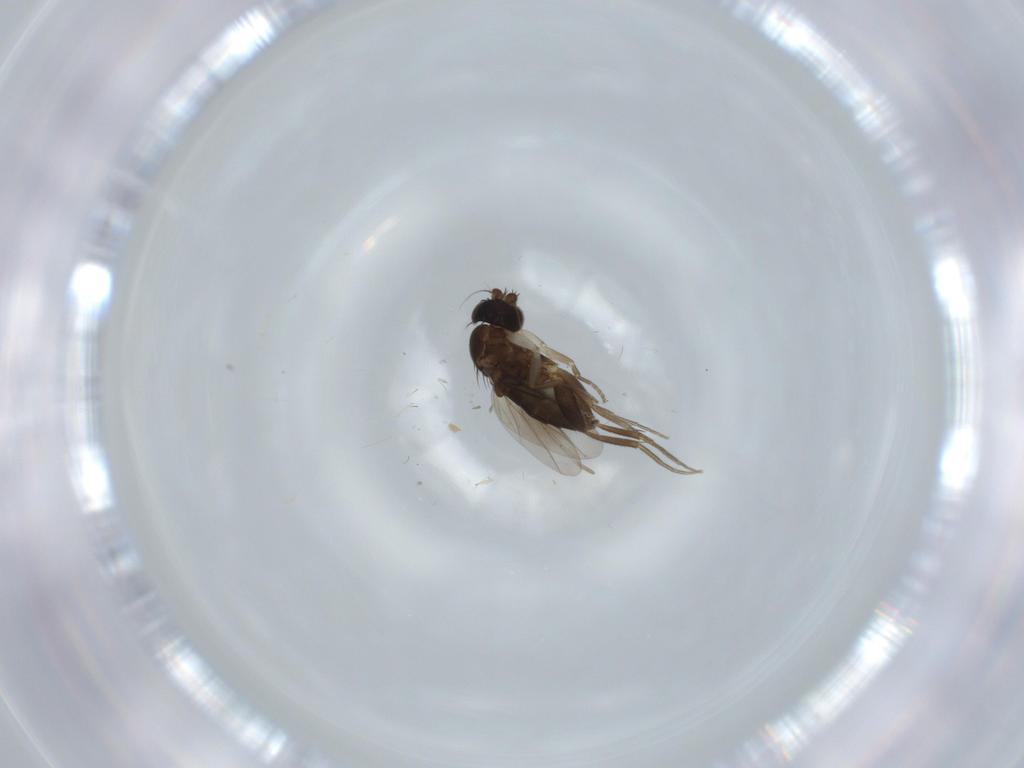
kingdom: Animalia
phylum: Arthropoda
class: Insecta
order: Diptera
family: Phoridae
